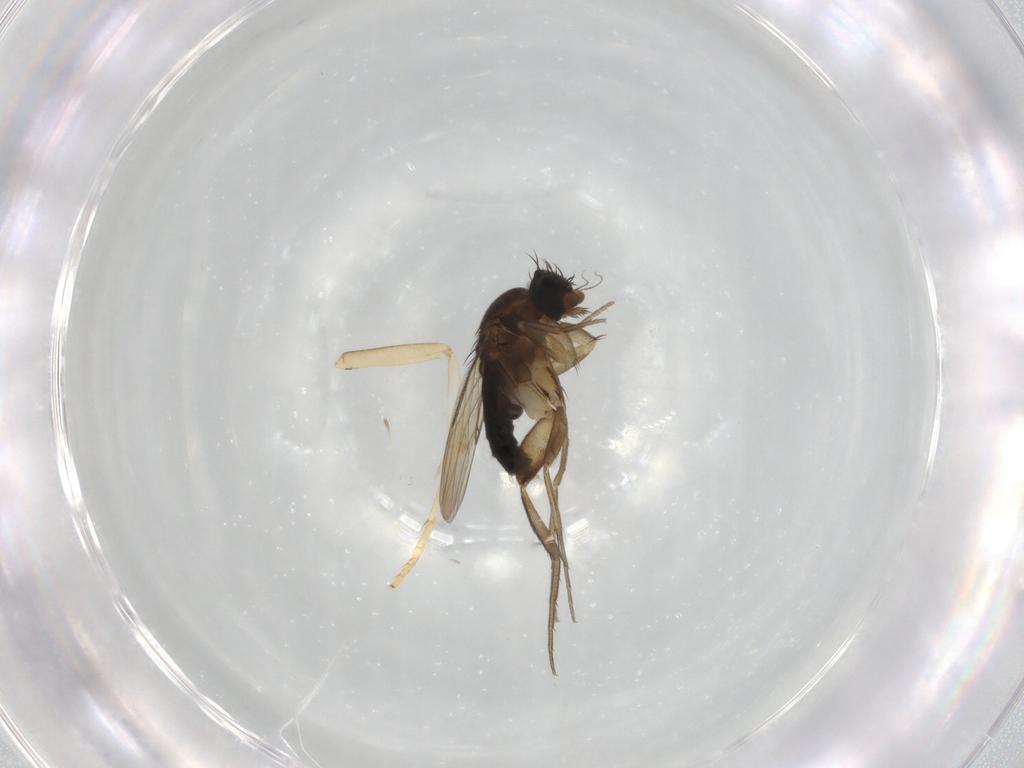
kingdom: Animalia
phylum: Arthropoda
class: Insecta
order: Diptera
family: Phoridae
